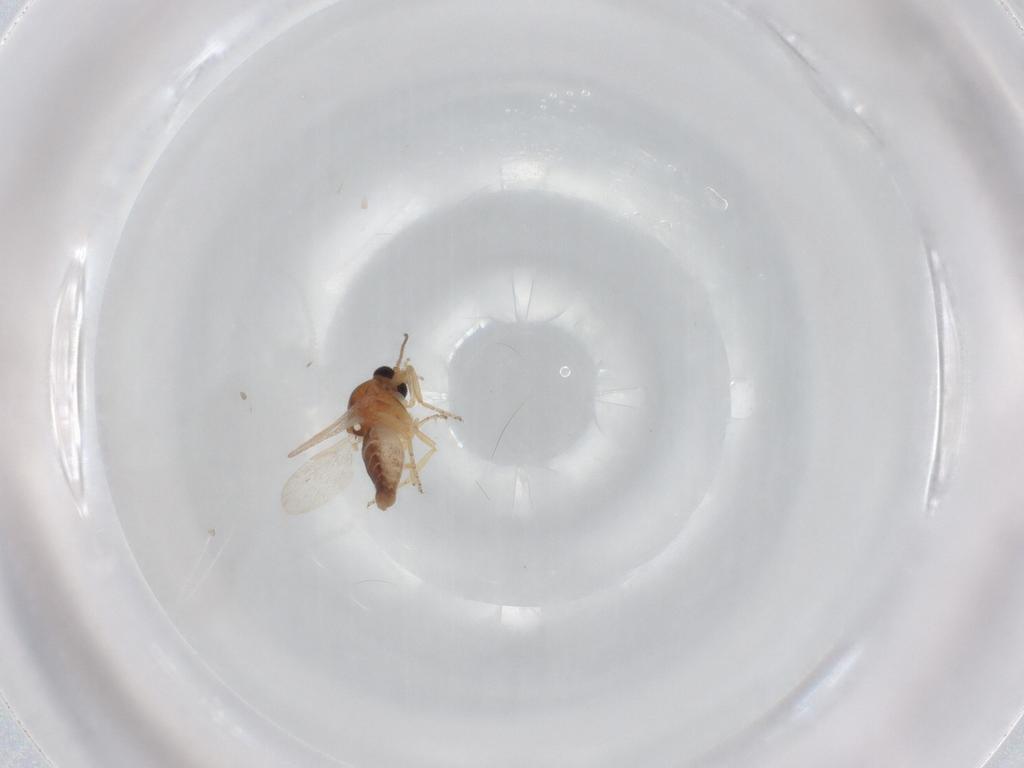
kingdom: Animalia
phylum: Arthropoda
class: Insecta
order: Diptera
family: Ceratopogonidae
